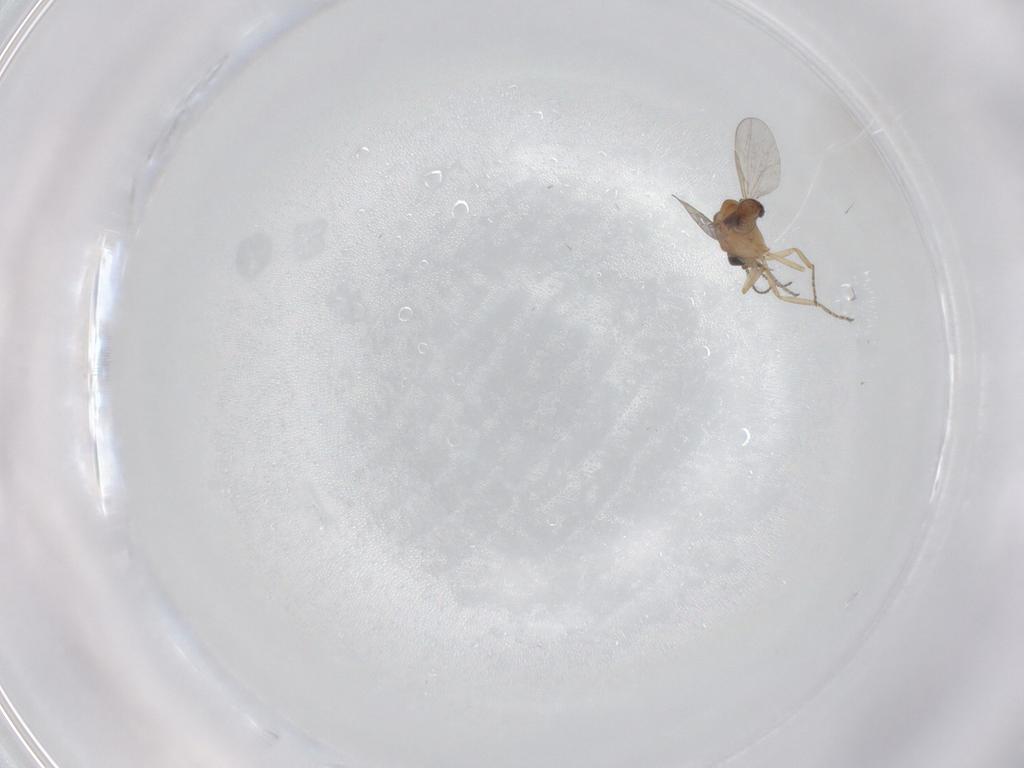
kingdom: Animalia
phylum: Arthropoda
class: Insecta
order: Diptera
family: Ceratopogonidae
